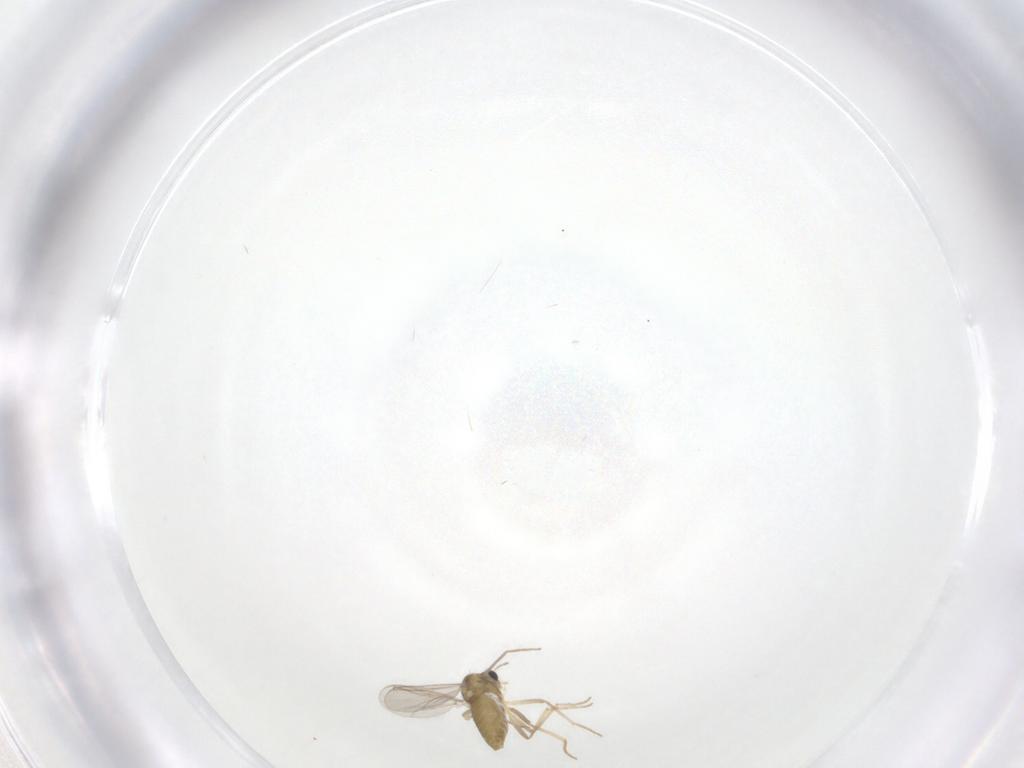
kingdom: Animalia
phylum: Arthropoda
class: Insecta
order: Diptera
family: Chironomidae
